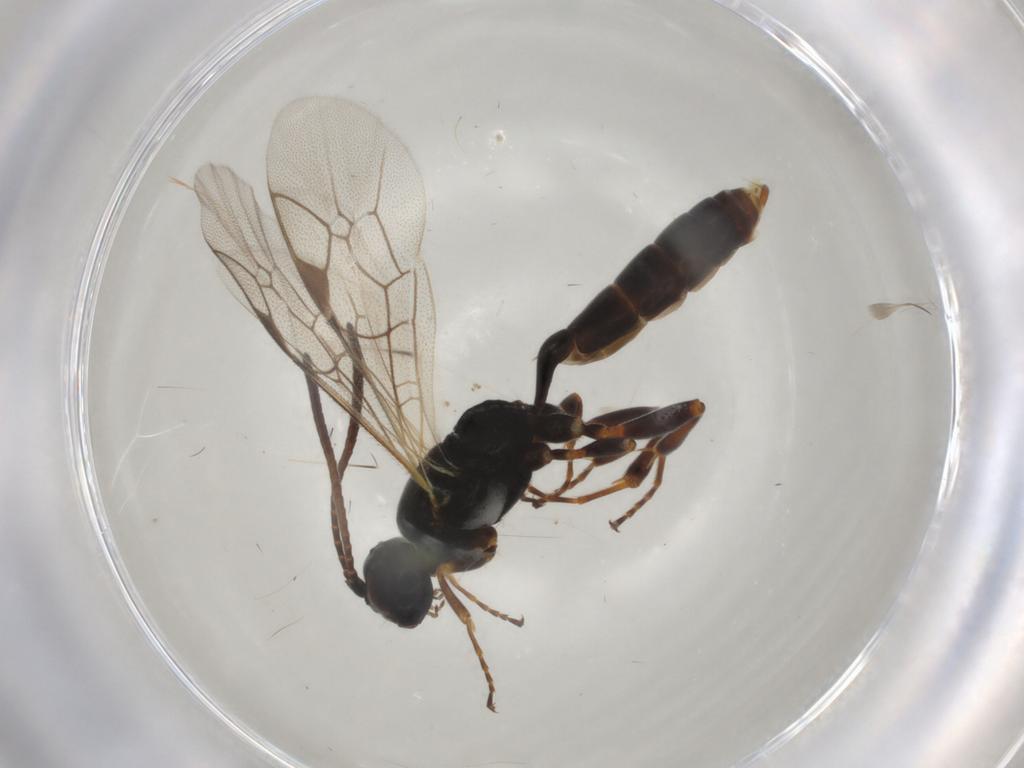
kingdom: Animalia
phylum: Arthropoda
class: Insecta
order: Hymenoptera
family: Ichneumonidae
